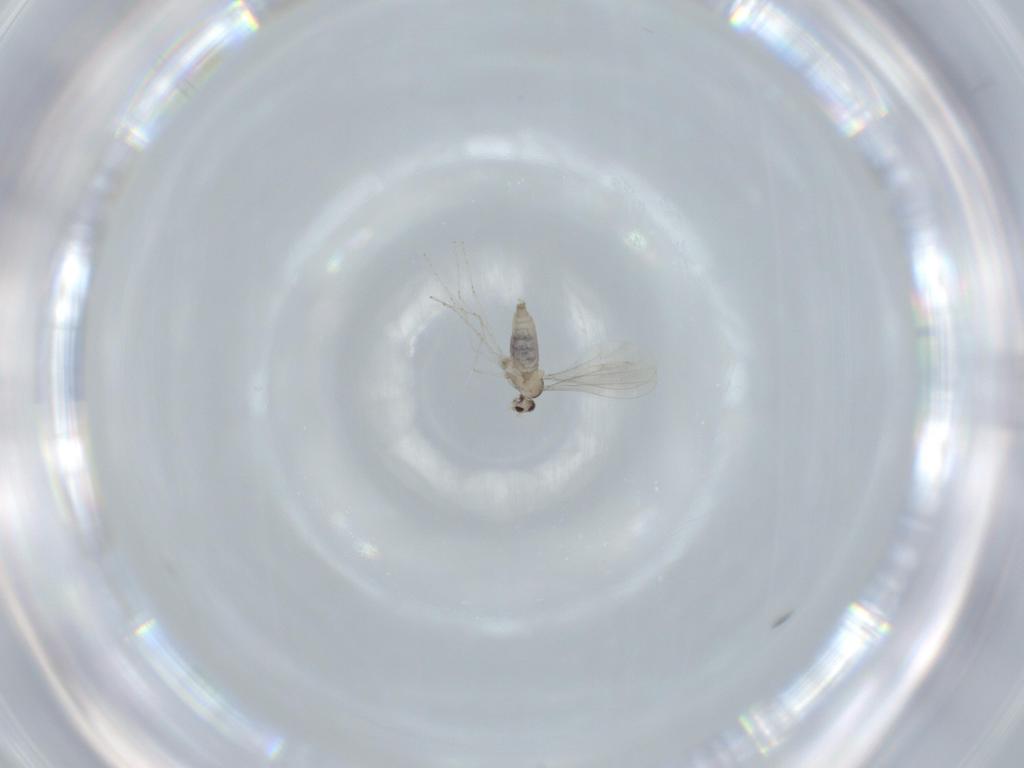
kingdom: Animalia
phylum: Arthropoda
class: Insecta
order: Diptera
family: Cecidomyiidae
